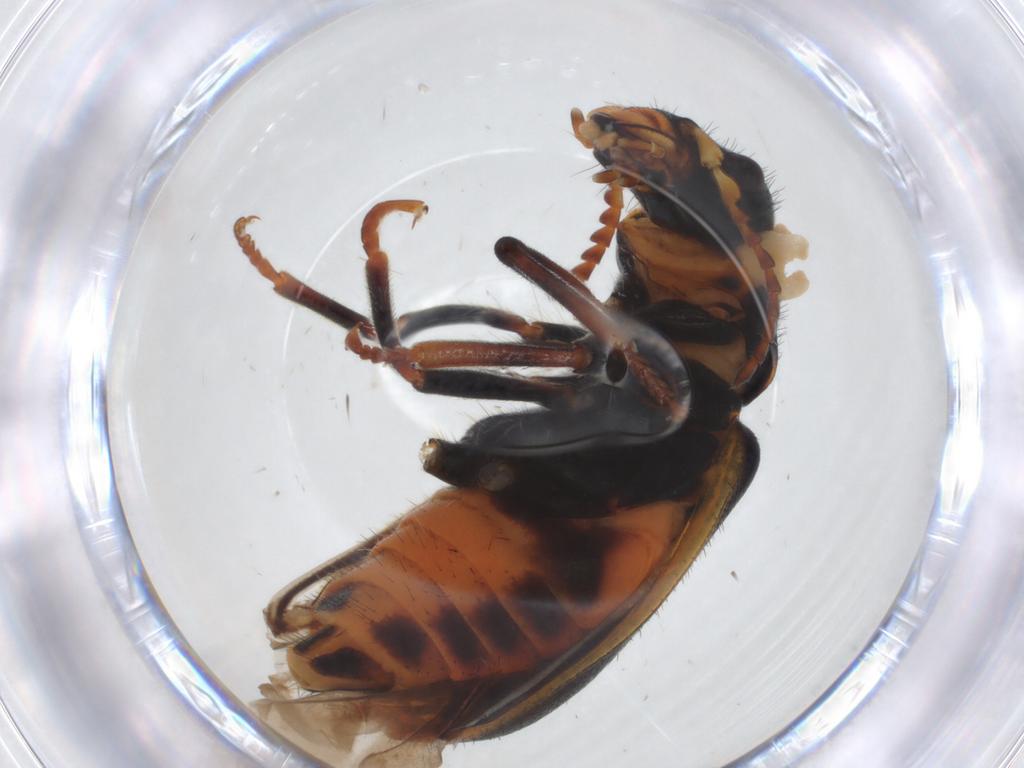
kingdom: Animalia
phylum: Arthropoda
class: Insecta
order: Coleoptera
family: Melyridae
